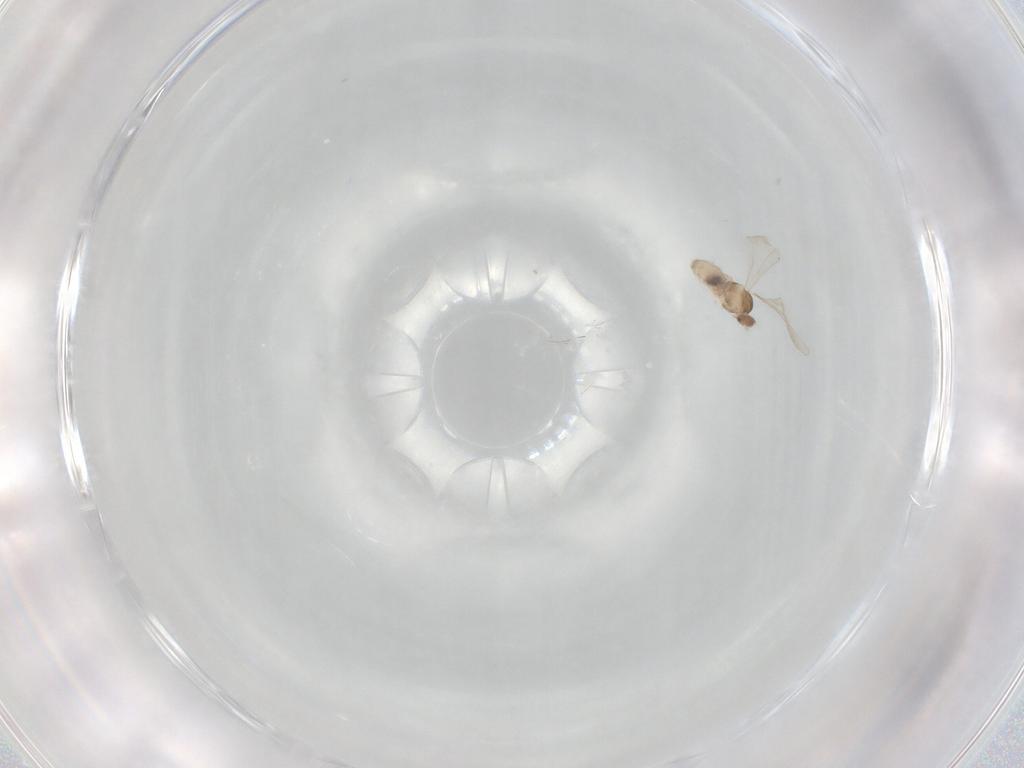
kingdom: Animalia
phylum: Arthropoda
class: Insecta
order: Diptera
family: Cecidomyiidae
